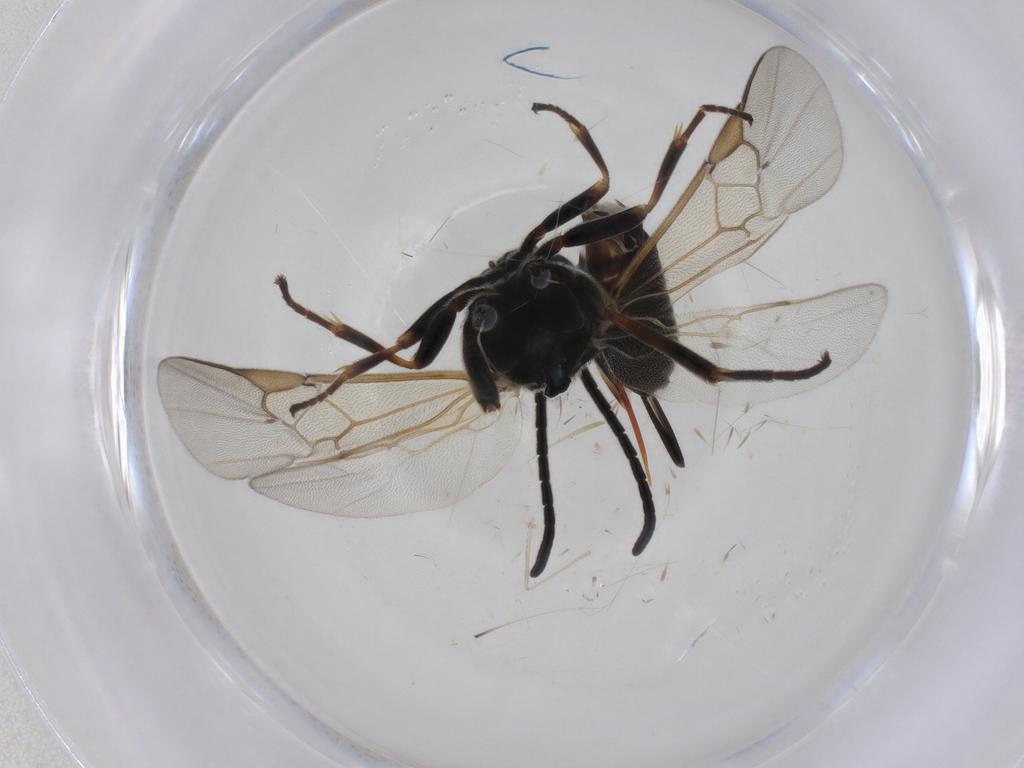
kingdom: Animalia
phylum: Arthropoda
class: Insecta
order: Hymenoptera
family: Braconidae
